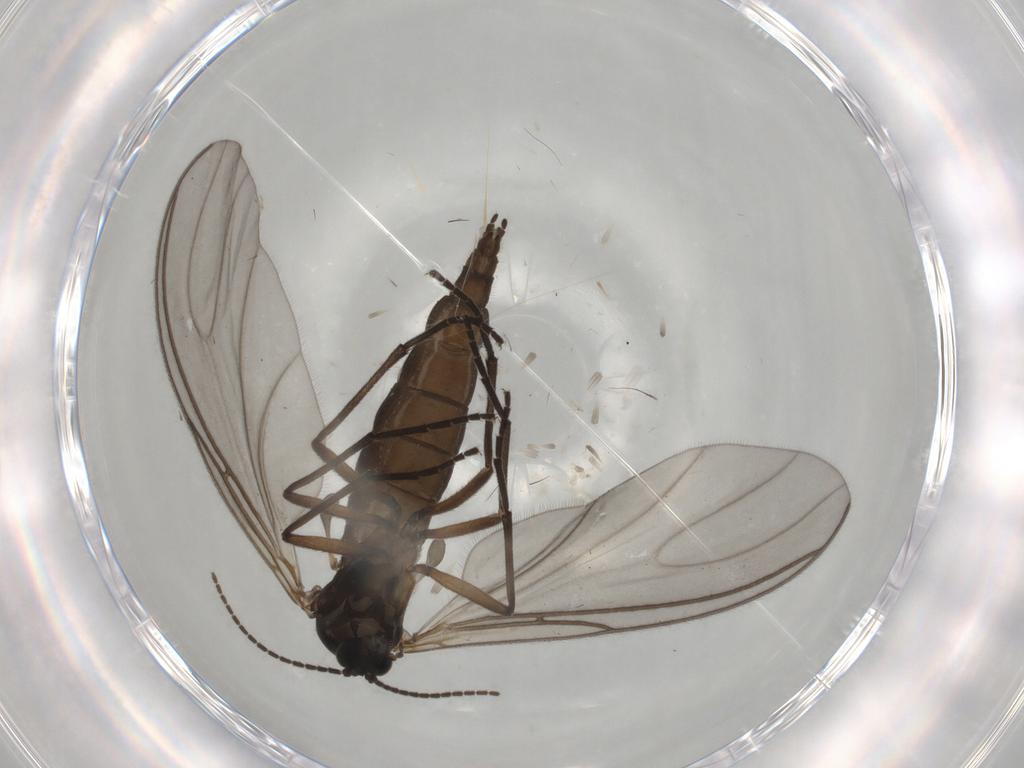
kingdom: Animalia
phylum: Arthropoda
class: Insecta
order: Diptera
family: Sciaridae
